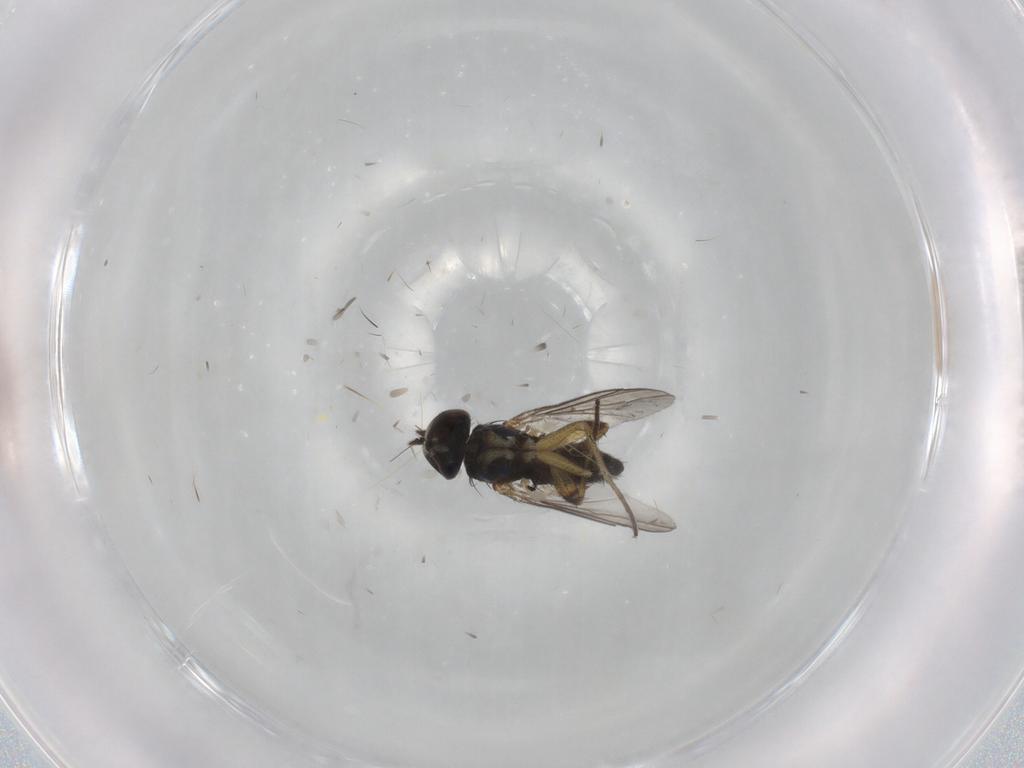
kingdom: Animalia
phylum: Arthropoda
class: Insecta
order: Diptera
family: Dolichopodidae
